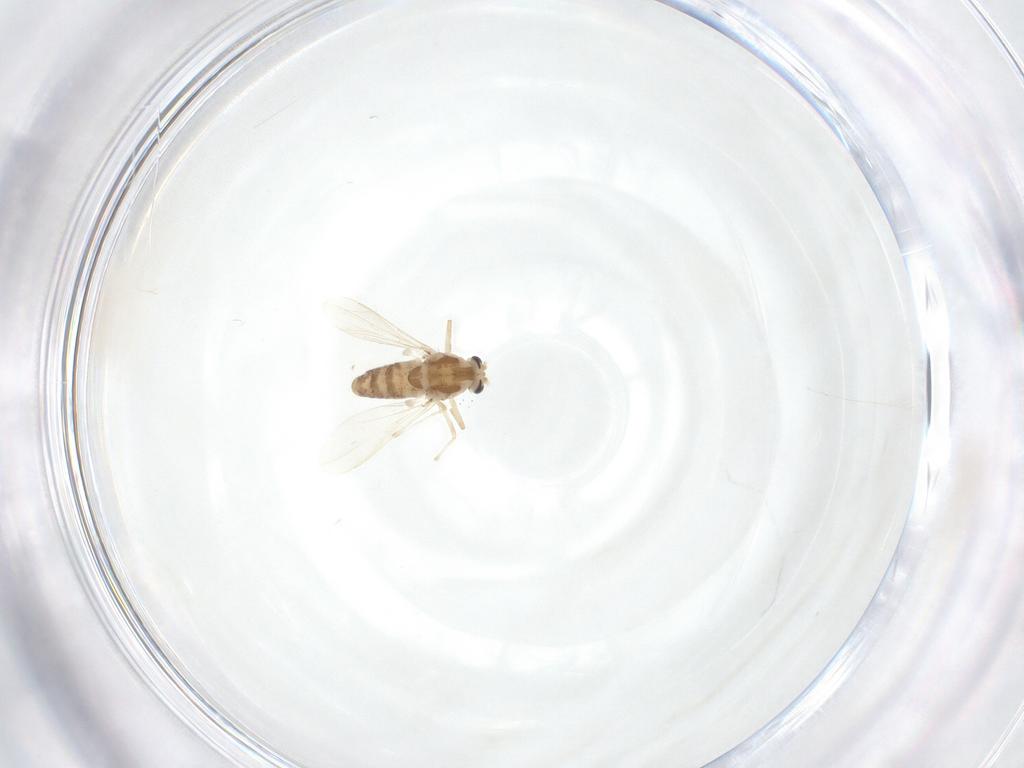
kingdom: Animalia
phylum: Arthropoda
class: Insecta
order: Diptera
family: Chironomidae
